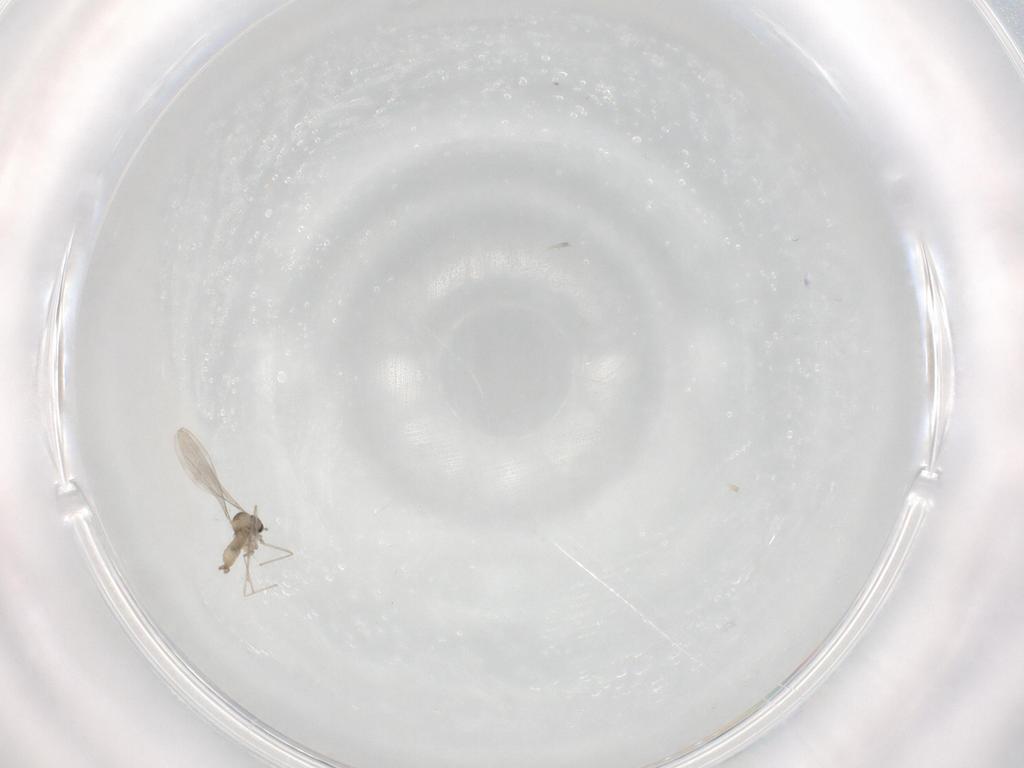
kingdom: Animalia
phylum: Arthropoda
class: Insecta
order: Diptera
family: Cecidomyiidae
